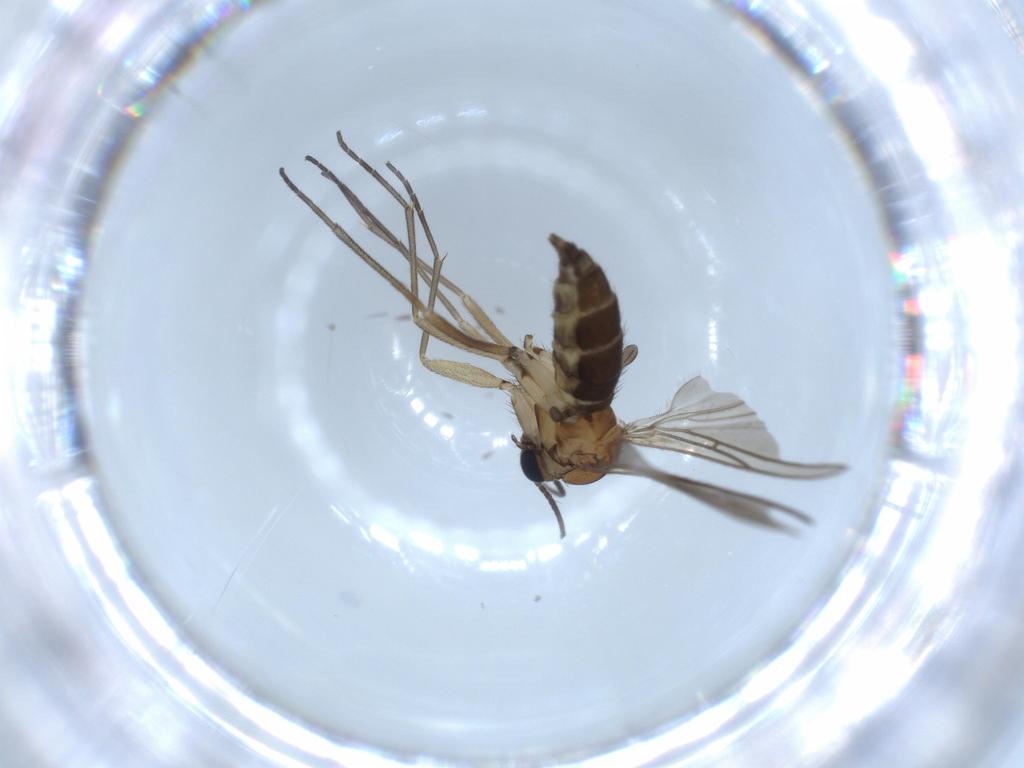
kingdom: Animalia
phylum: Arthropoda
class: Insecta
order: Diptera
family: Sciaridae
